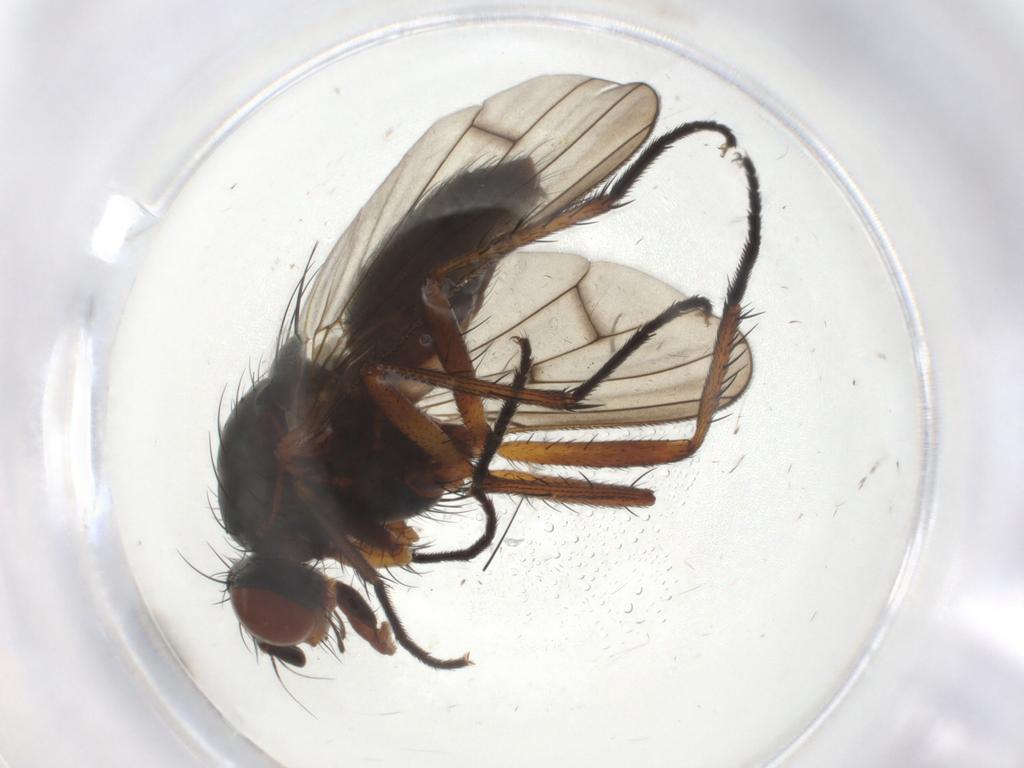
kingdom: Animalia
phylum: Arthropoda
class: Insecta
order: Diptera
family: Anthomyiidae
